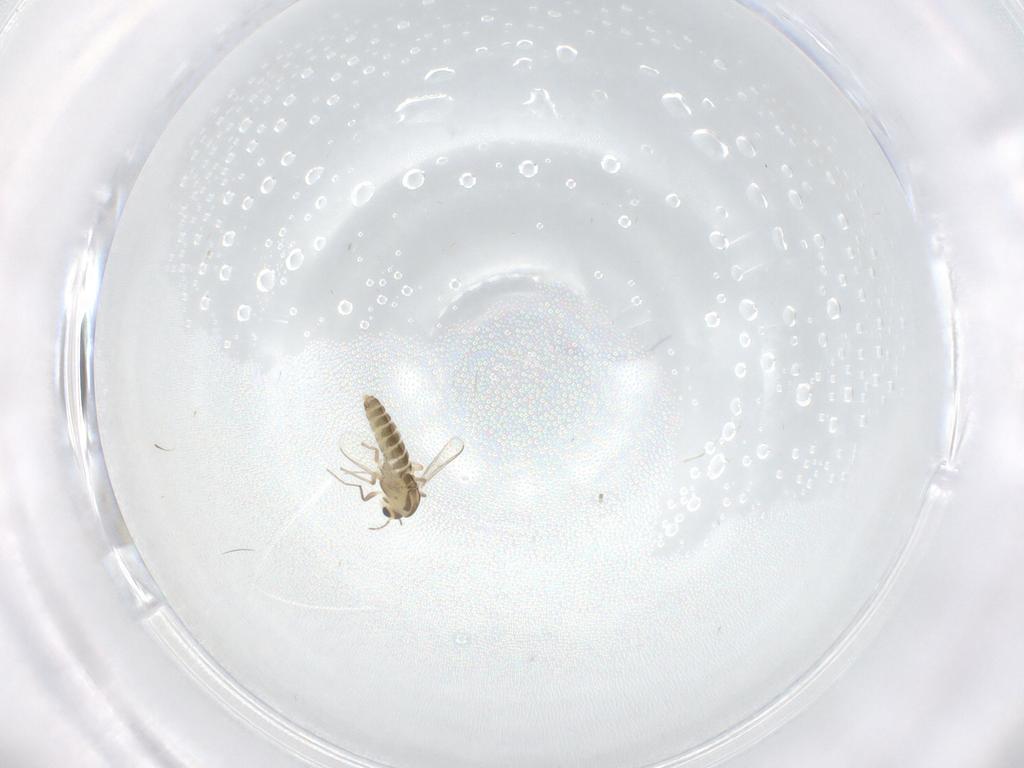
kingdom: Animalia
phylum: Arthropoda
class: Insecta
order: Diptera
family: Chironomidae
